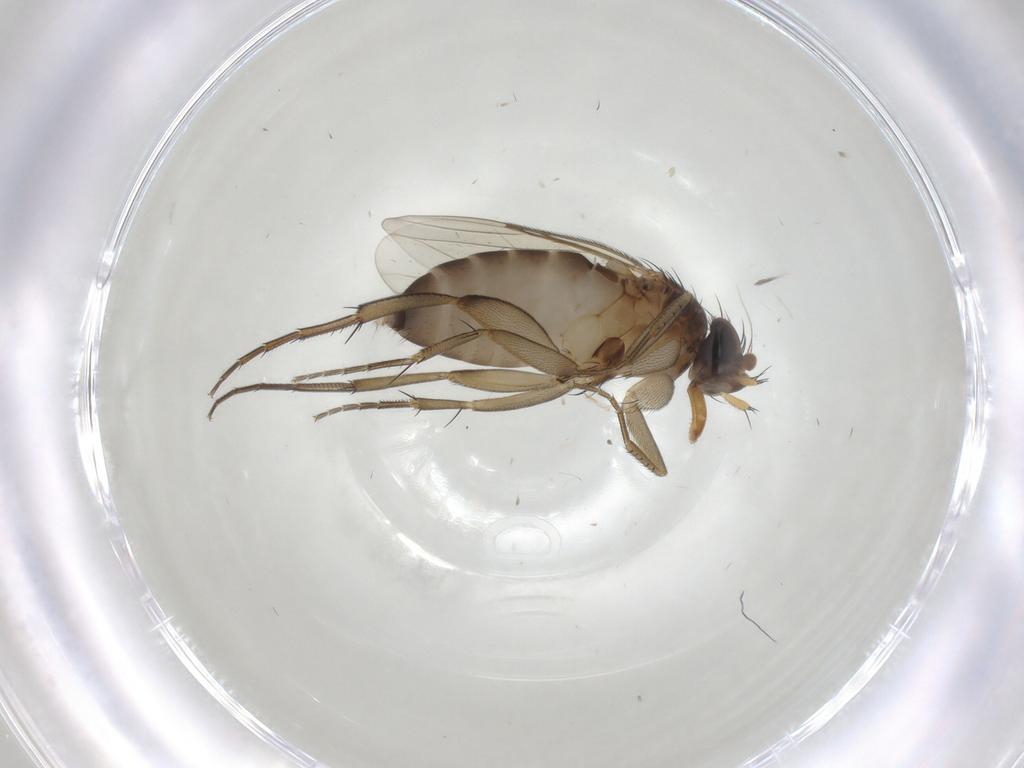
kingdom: Animalia
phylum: Arthropoda
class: Insecta
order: Diptera
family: Phoridae
